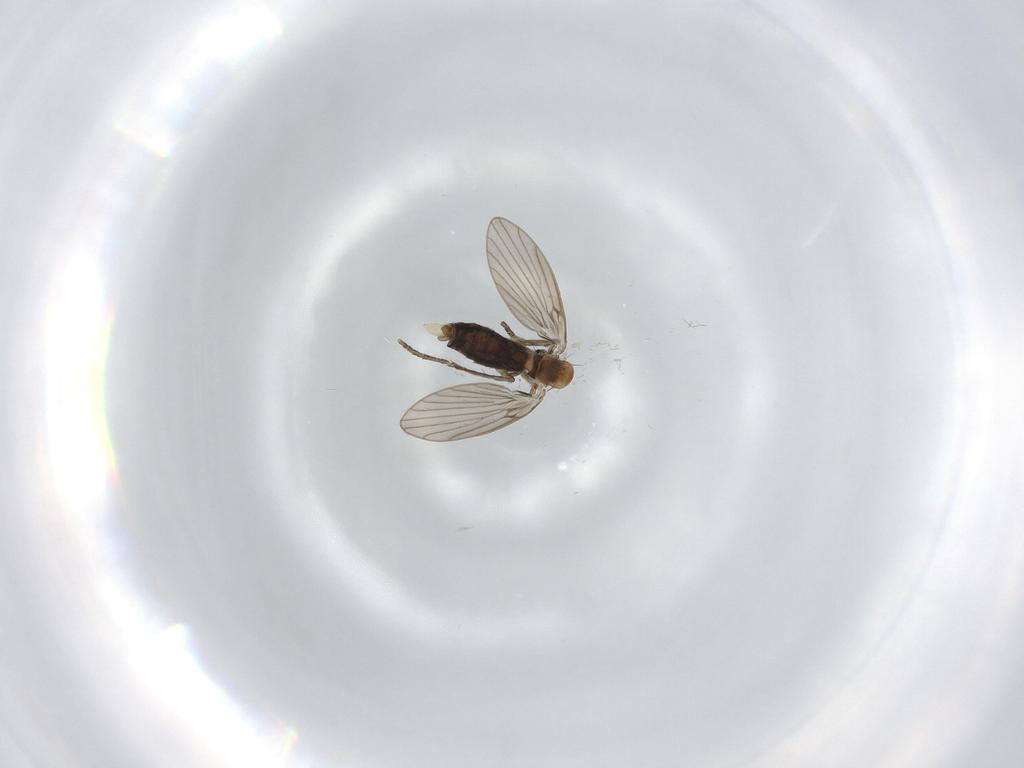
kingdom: Animalia
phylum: Arthropoda
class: Insecta
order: Diptera
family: Psychodidae
